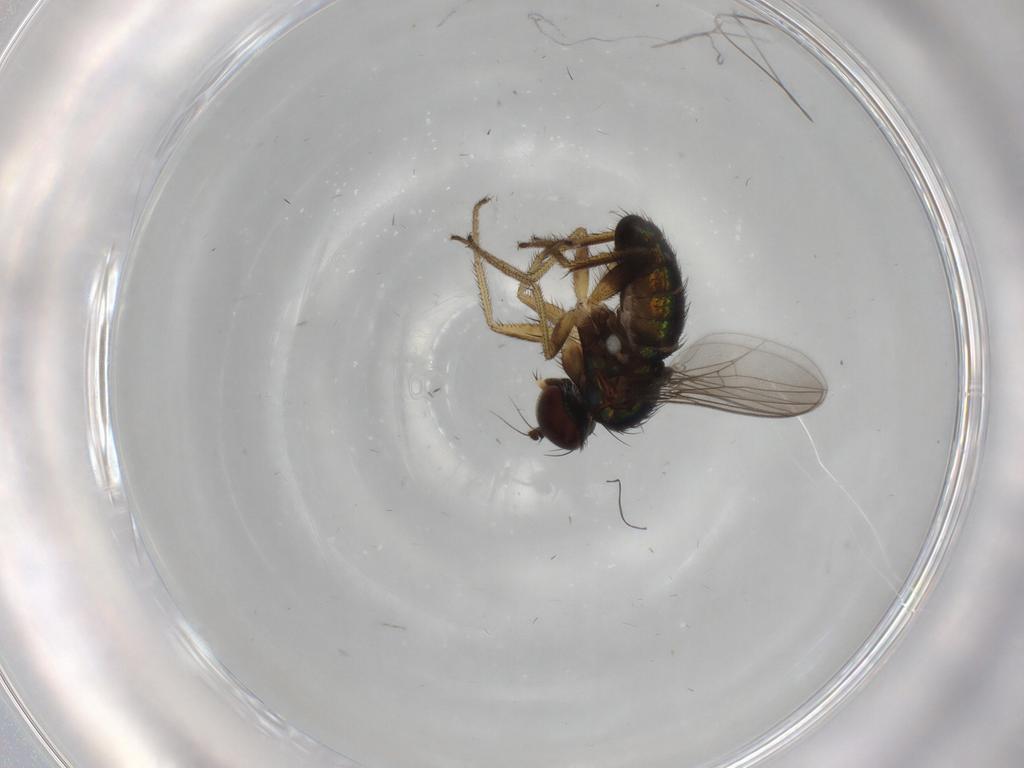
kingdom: Animalia
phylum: Arthropoda
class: Insecta
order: Diptera
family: Dolichopodidae
